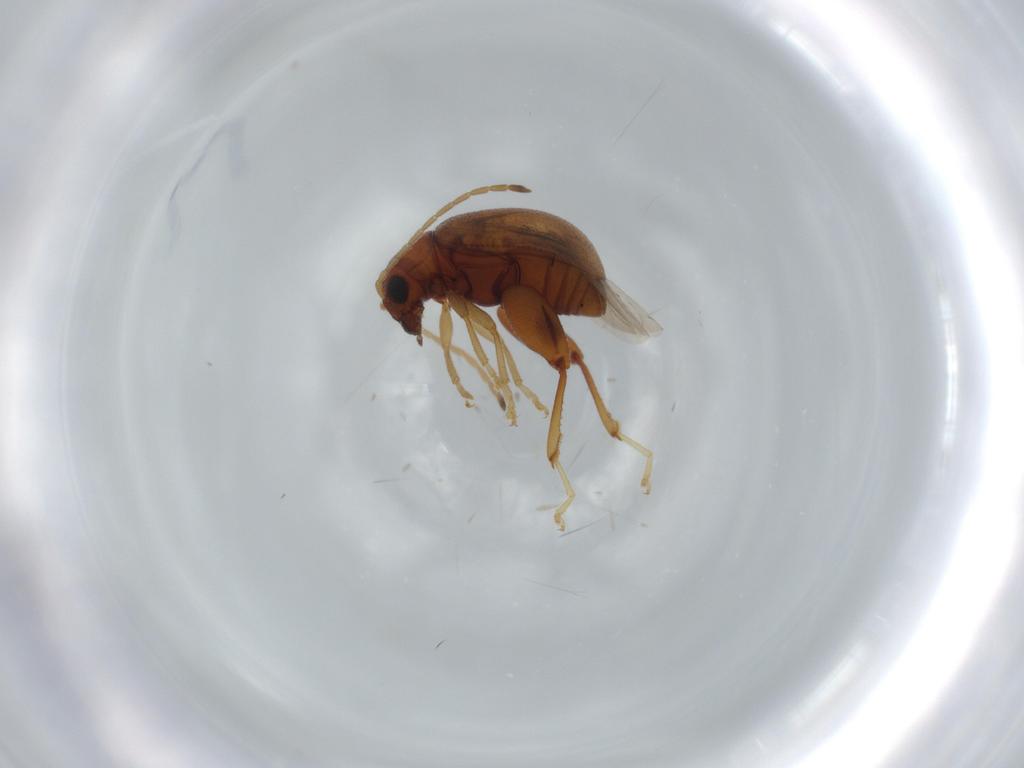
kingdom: Animalia
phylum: Arthropoda
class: Insecta
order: Coleoptera
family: Chrysomelidae
